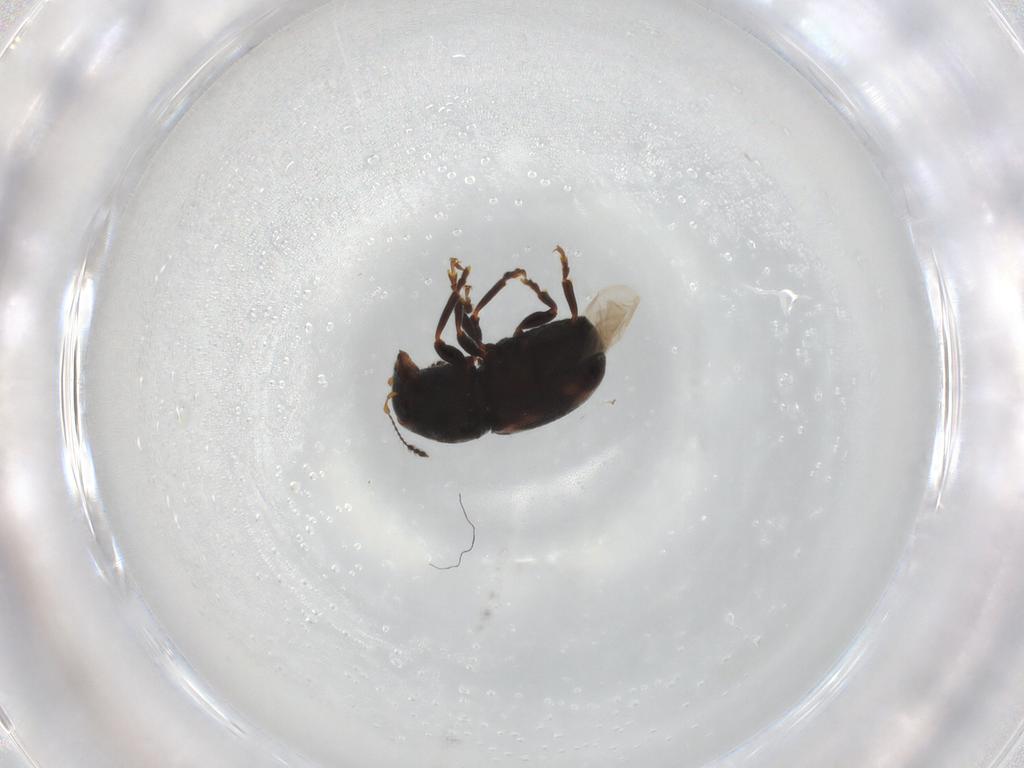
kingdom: Animalia
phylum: Arthropoda
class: Insecta
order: Coleoptera
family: Anthribidae
